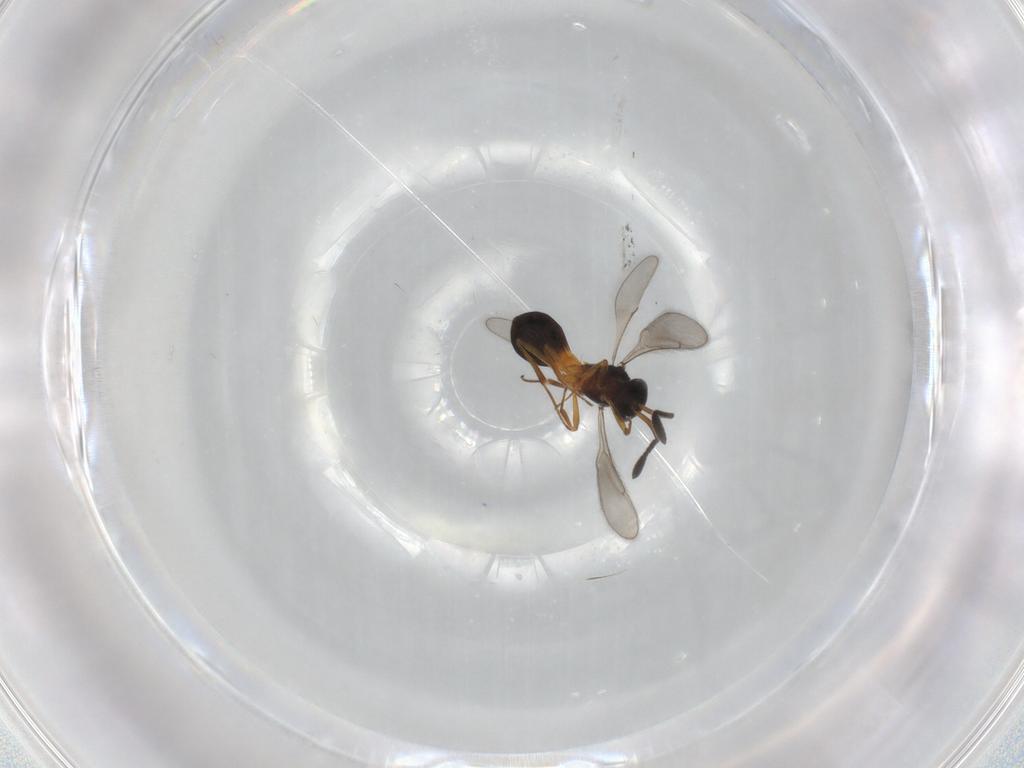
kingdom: Animalia
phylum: Arthropoda
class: Insecta
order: Hymenoptera
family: Scelionidae
